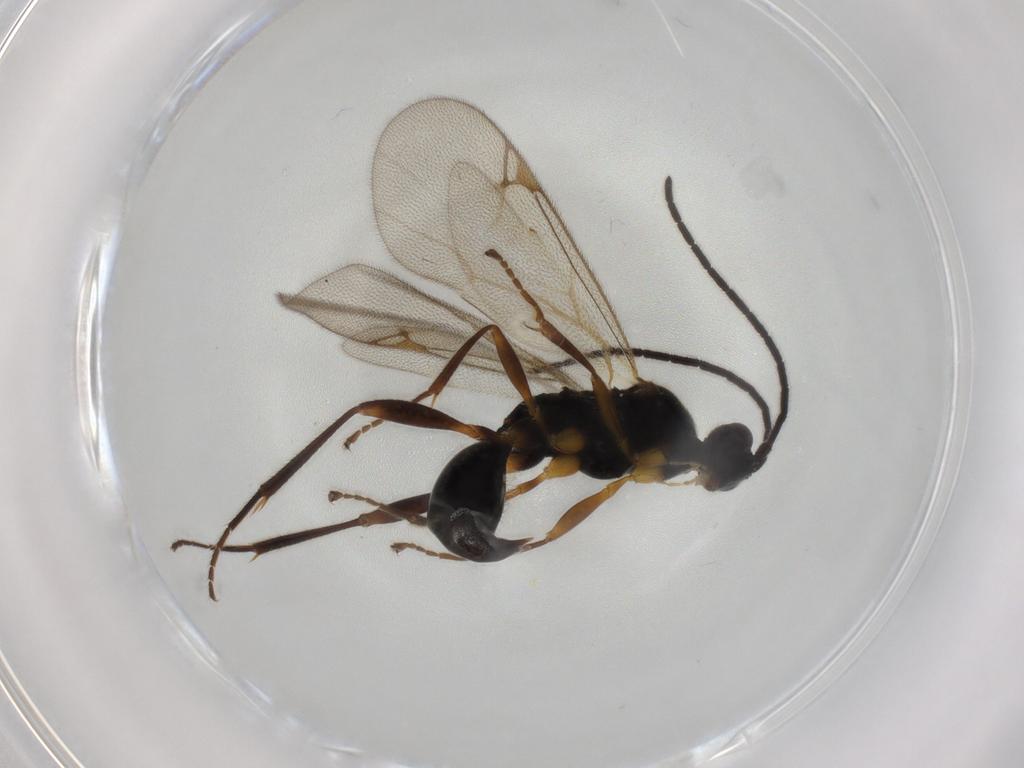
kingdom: Animalia
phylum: Arthropoda
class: Insecta
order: Hymenoptera
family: Proctotrupidae
